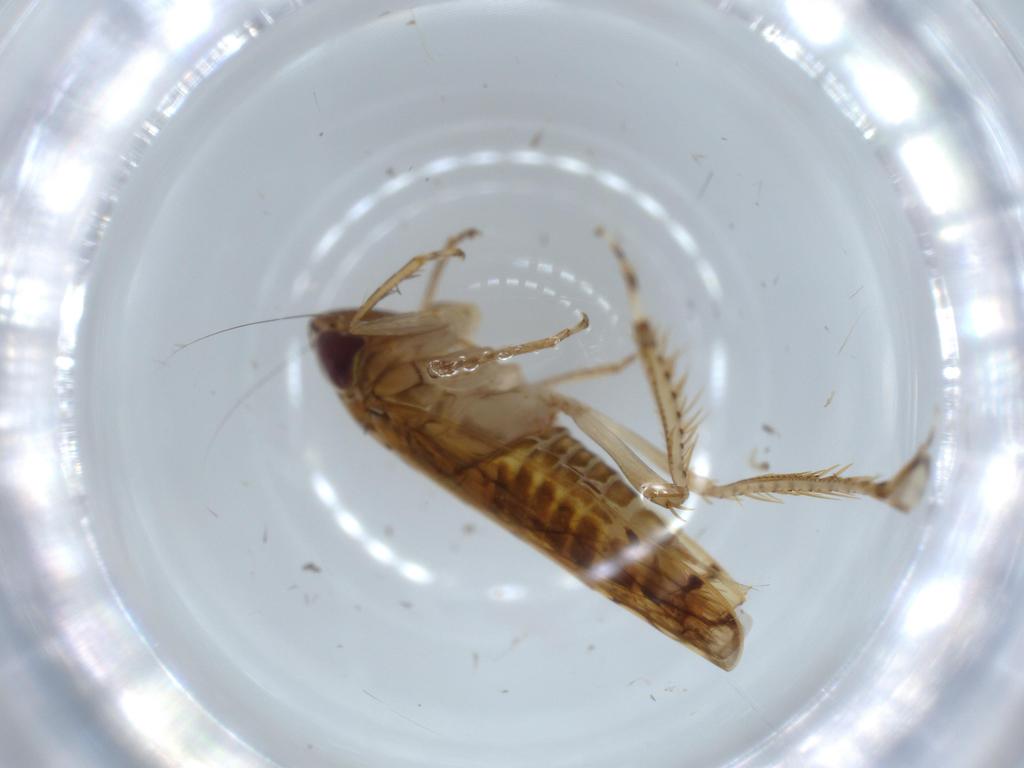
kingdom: Animalia
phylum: Arthropoda
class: Insecta
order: Hemiptera
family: Cicadellidae
